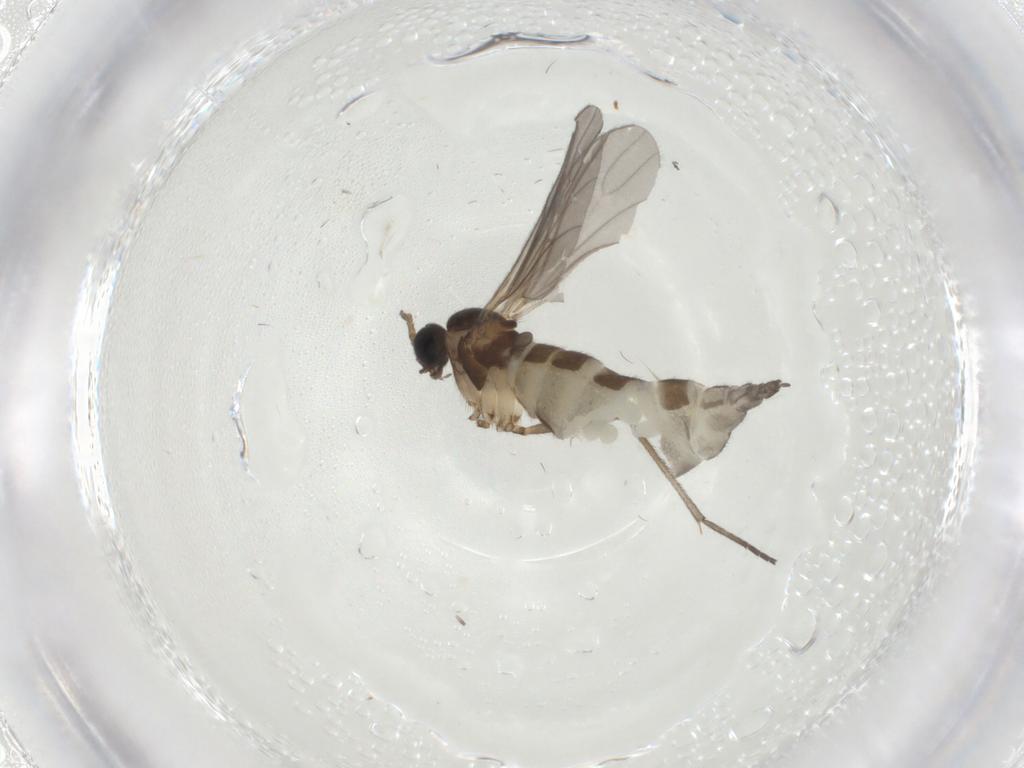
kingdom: Animalia
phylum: Arthropoda
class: Insecta
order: Diptera
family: Sciaridae
